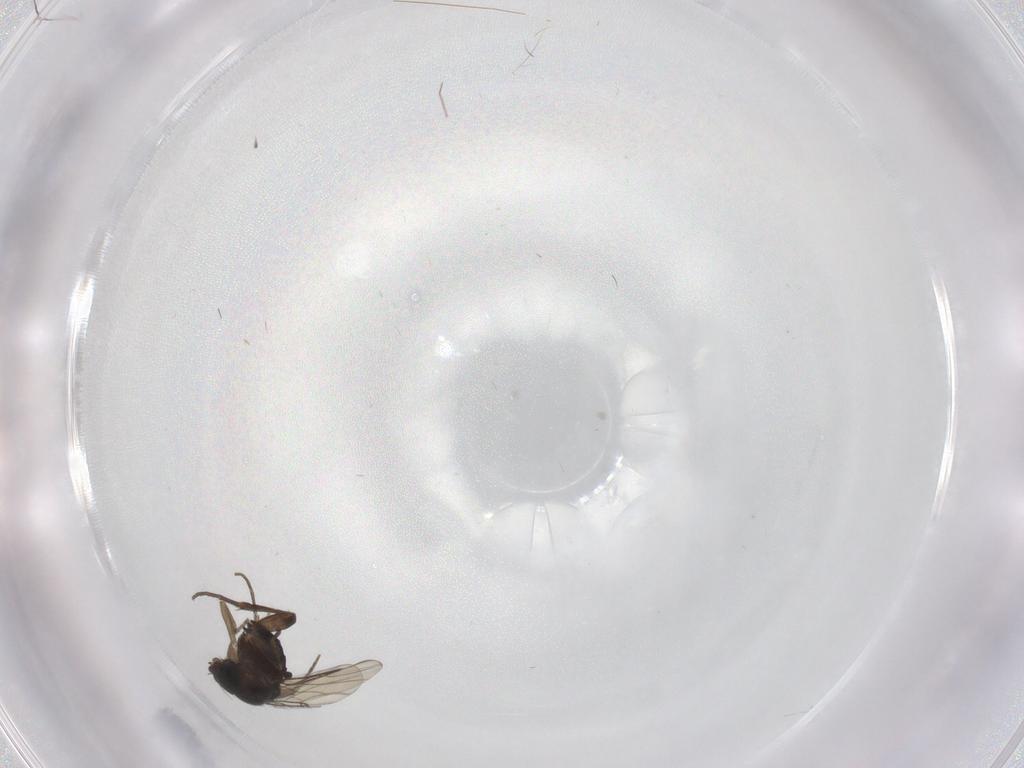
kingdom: Animalia
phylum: Arthropoda
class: Insecta
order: Diptera
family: Phoridae
